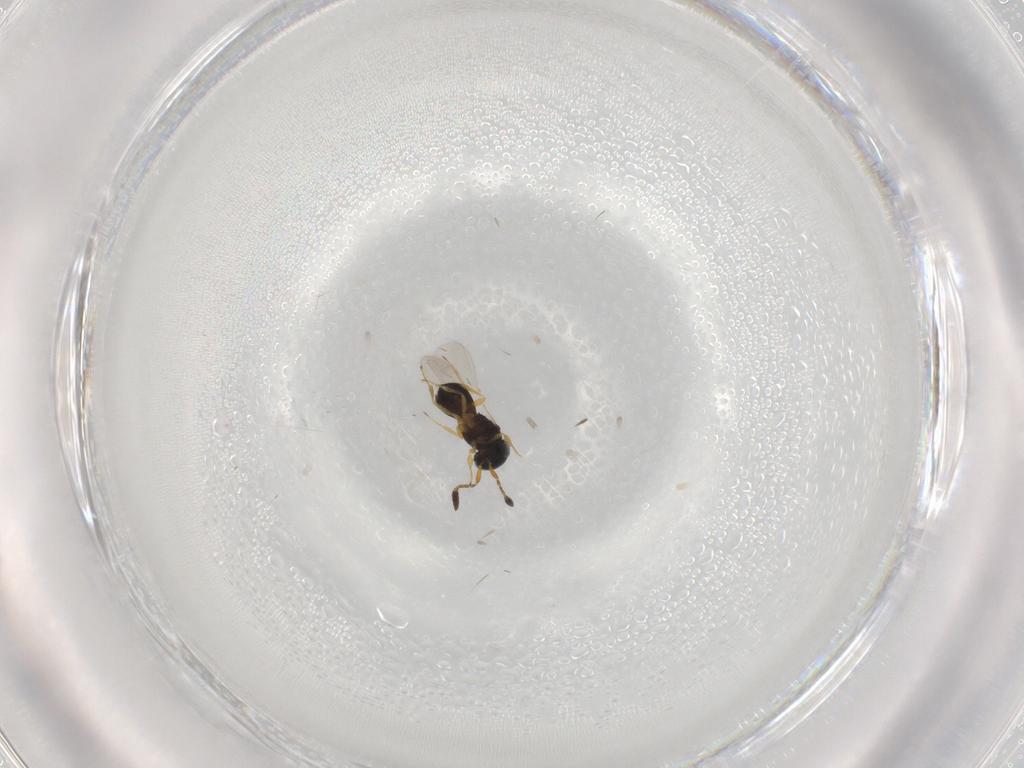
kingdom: Animalia
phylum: Arthropoda
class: Insecta
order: Hymenoptera
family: Scelionidae
